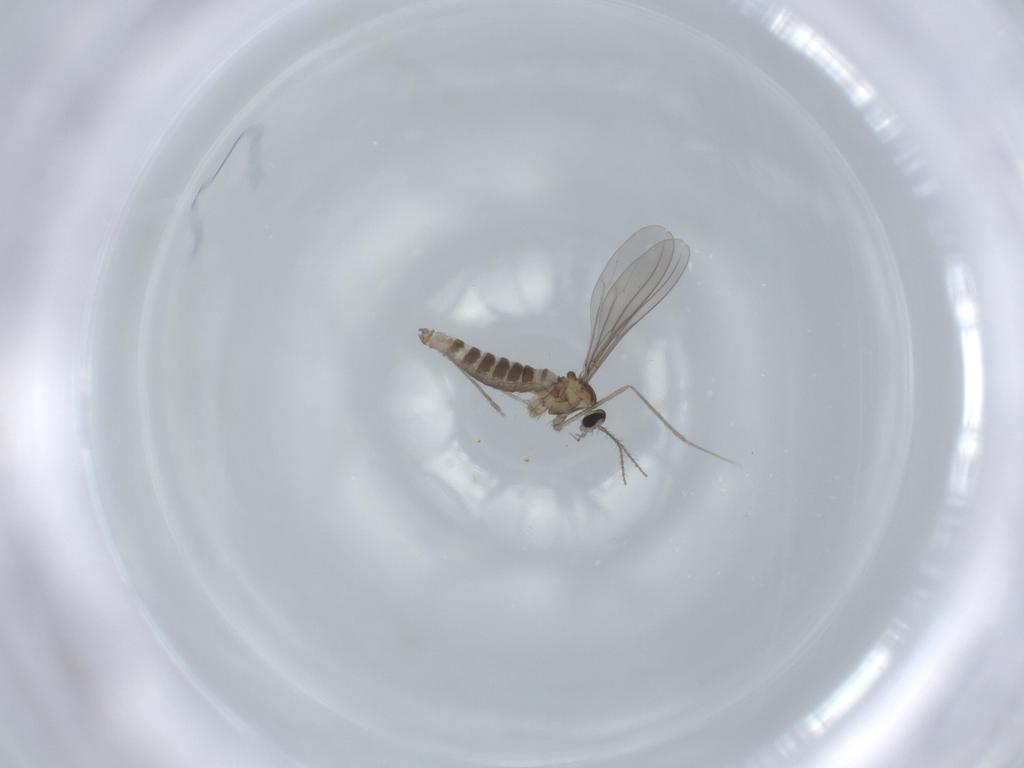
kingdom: Animalia
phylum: Arthropoda
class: Insecta
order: Diptera
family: Cecidomyiidae
